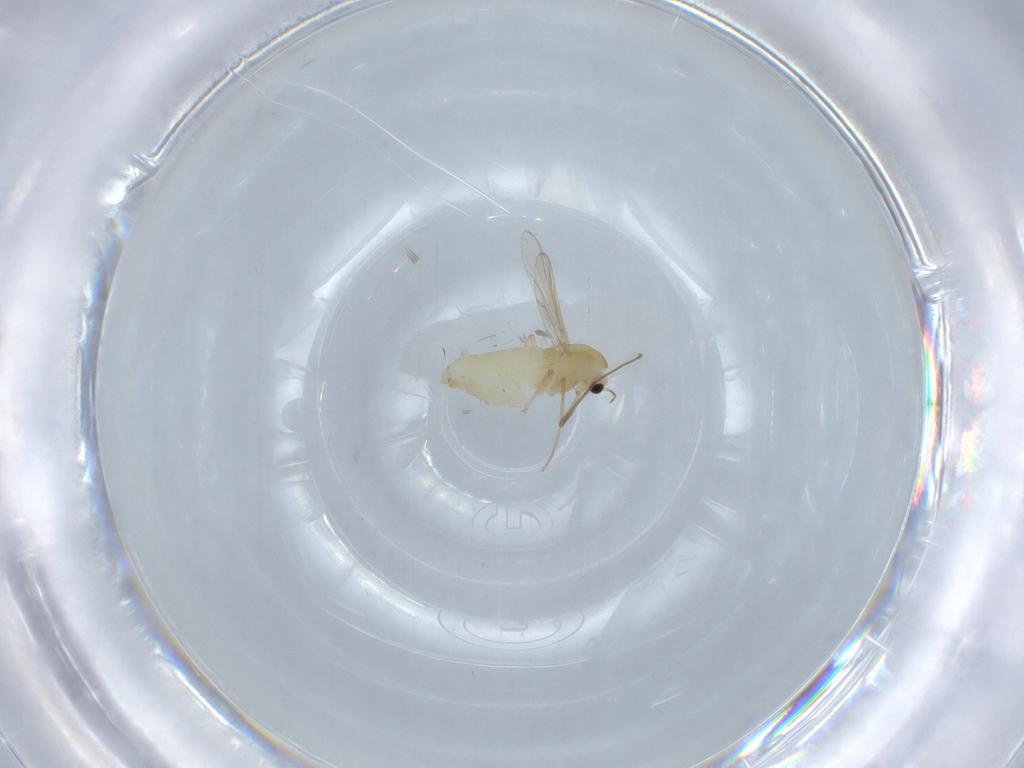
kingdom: Animalia
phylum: Arthropoda
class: Insecta
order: Diptera
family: Chironomidae
